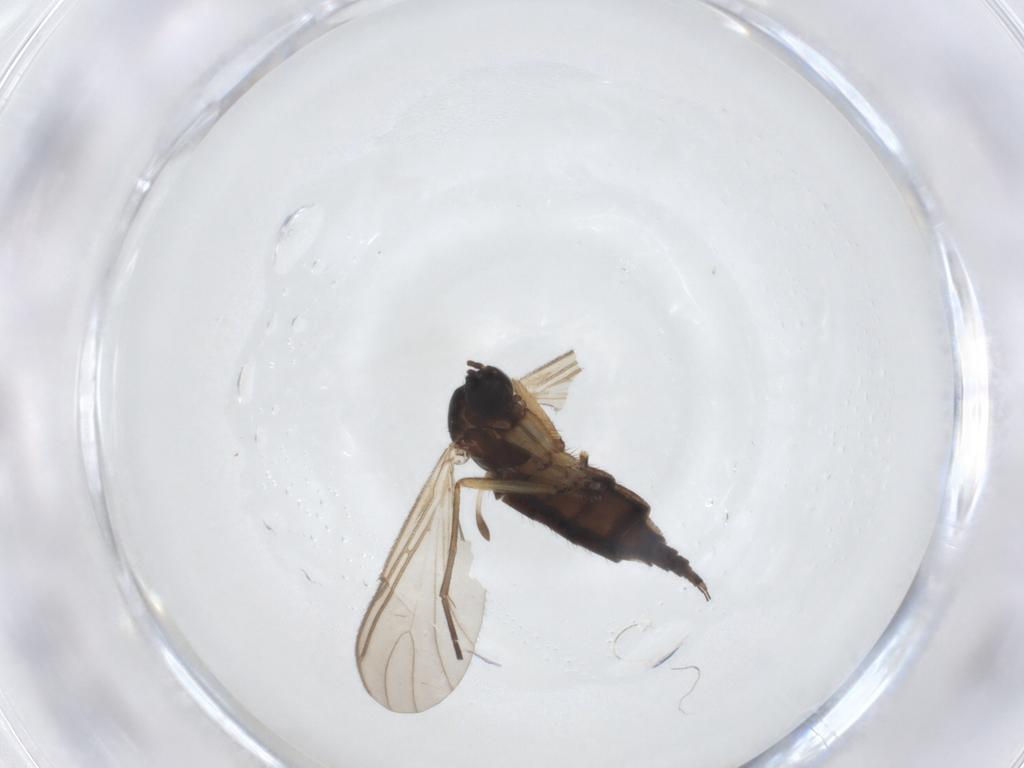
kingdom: Animalia
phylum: Arthropoda
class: Insecta
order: Diptera
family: Sciaridae
